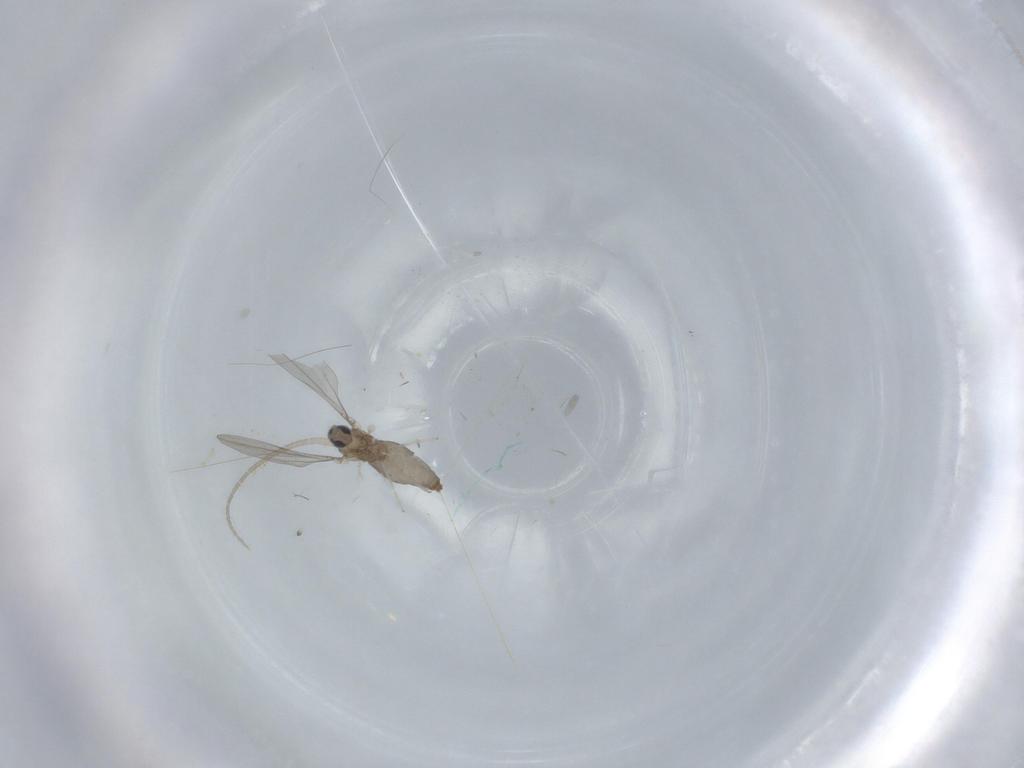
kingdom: Animalia
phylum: Arthropoda
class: Insecta
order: Diptera
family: Cecidomyiidae
